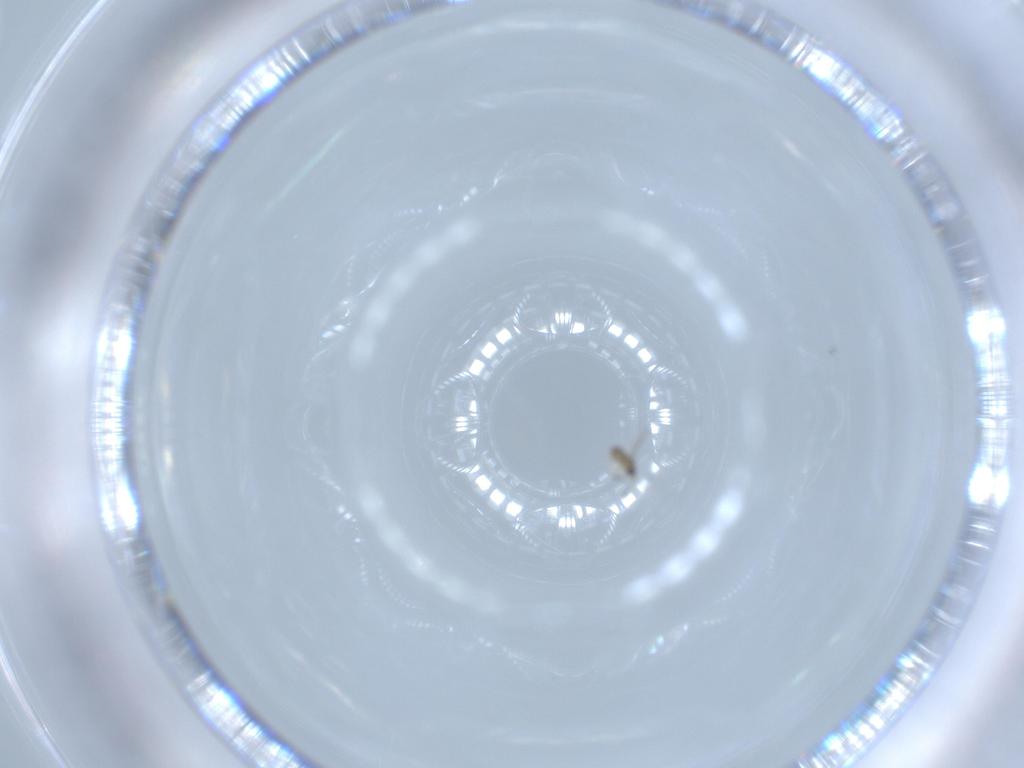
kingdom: Animalia
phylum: Arthropoda
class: Insecta
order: Hymenoptera
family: Mymaridae
